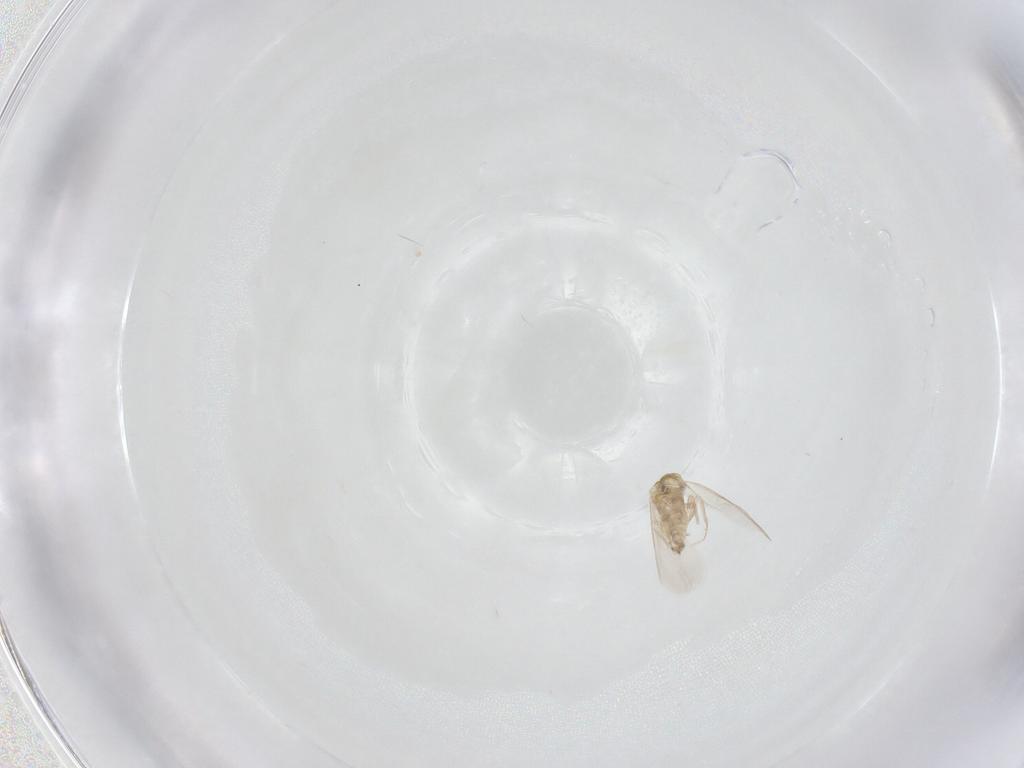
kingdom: Animalia
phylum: Arthropoda
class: Insecta
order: Hemiptera
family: Aleyrodidae
